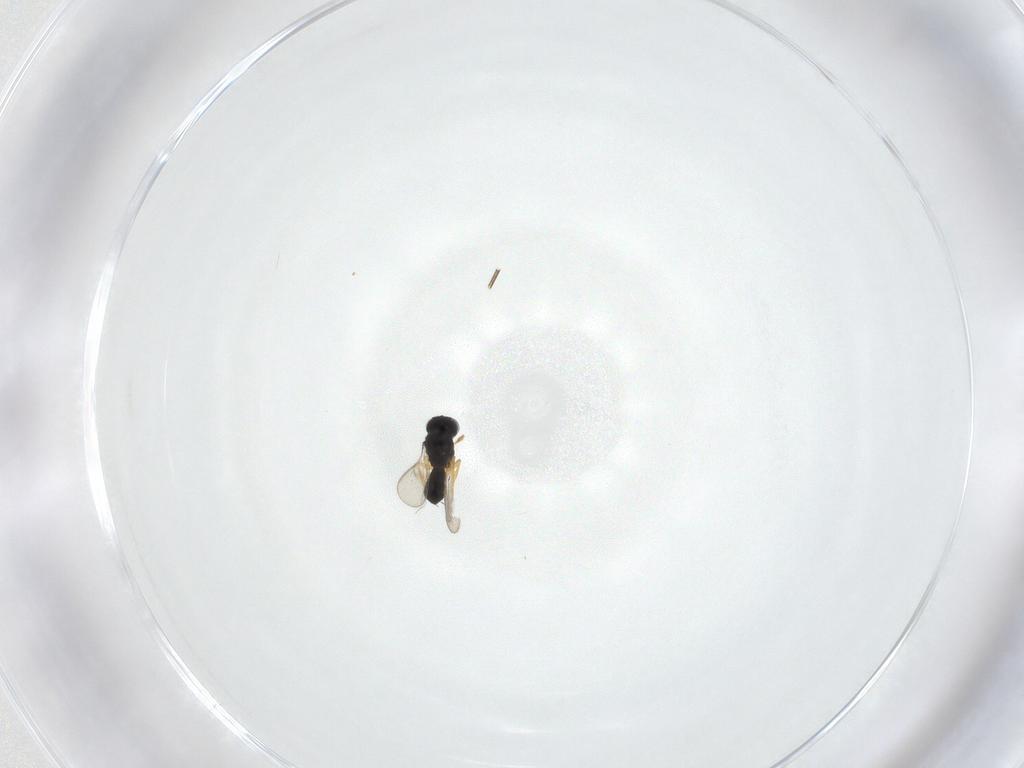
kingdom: Animalia
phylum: Arthropoda
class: Insecta
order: Hymenoptera
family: Scelionidae
